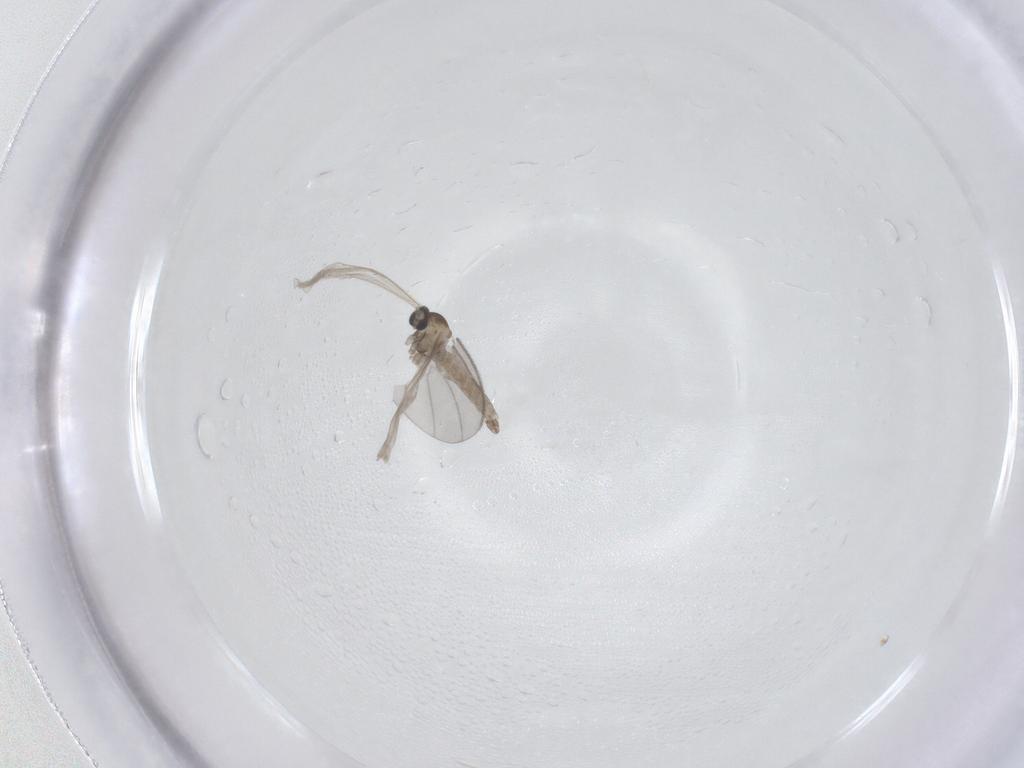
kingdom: Animalia
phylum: Arthropoda
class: Insecta
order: Diptera
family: Cecidomyiidae
